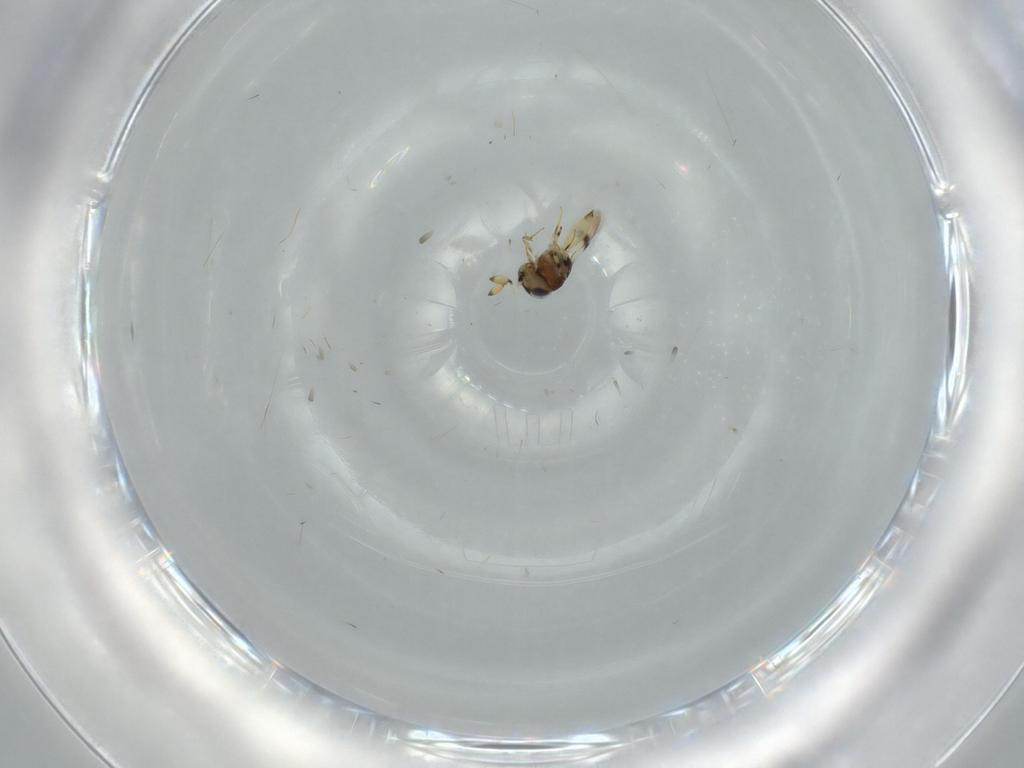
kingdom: Animalia
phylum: Arthropoda
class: Insecta
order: Hymenoptera
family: Scelionidae
